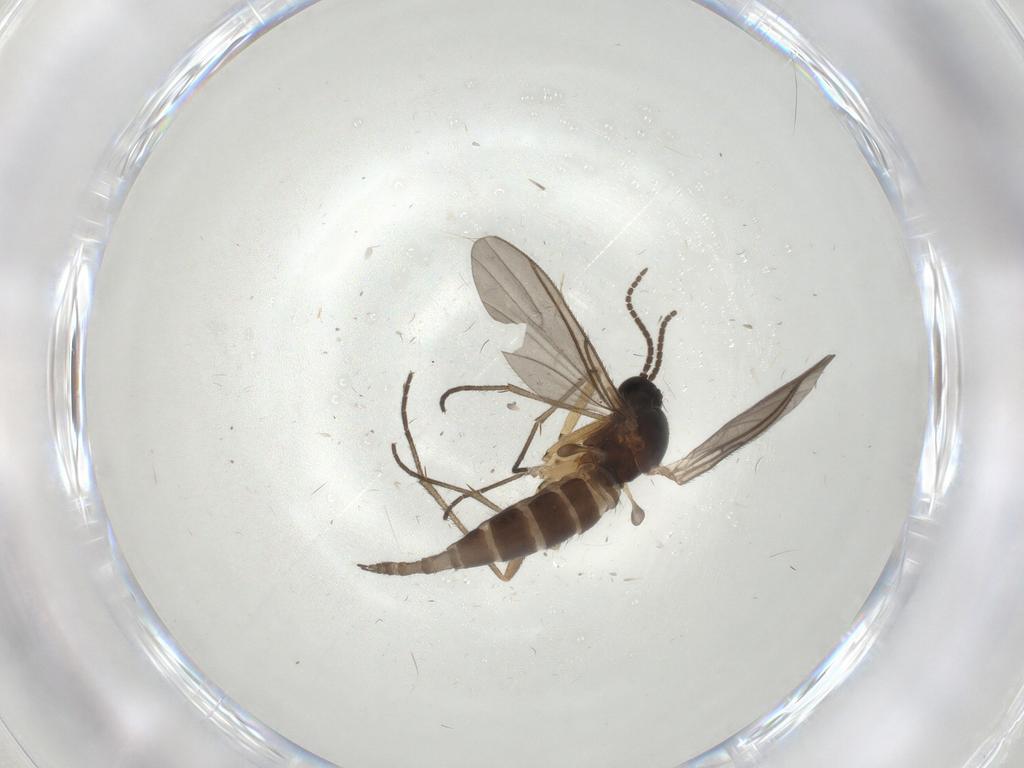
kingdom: Animalia
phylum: Arthropoda
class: Insecta
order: Diptera
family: Sciaridae
